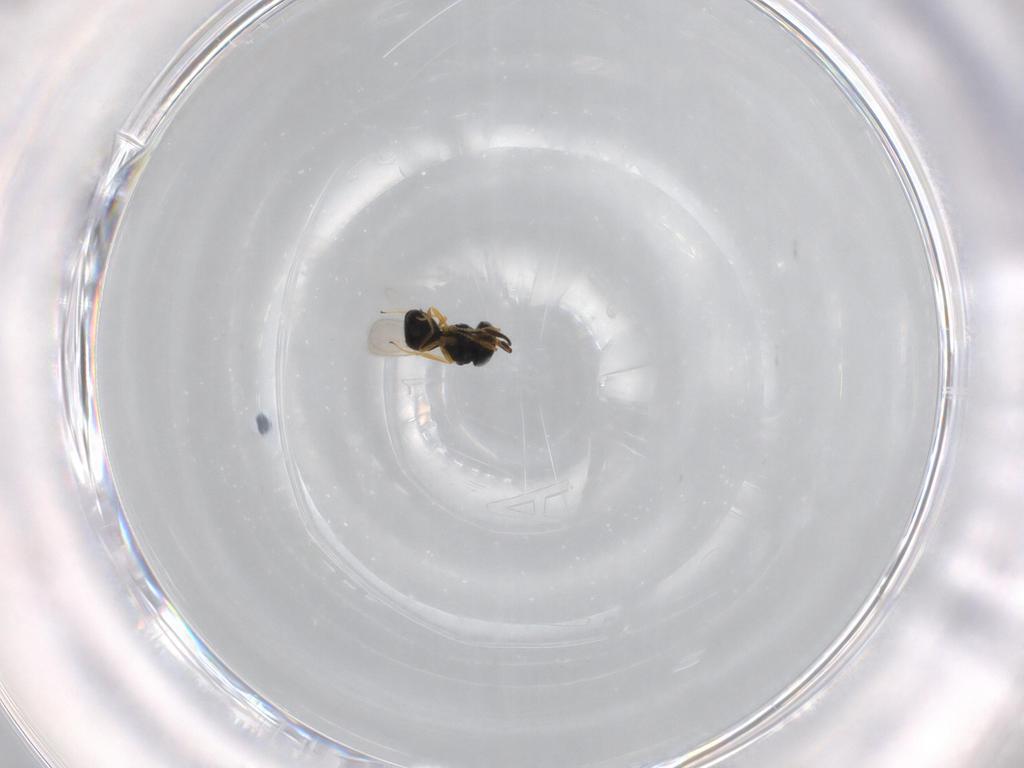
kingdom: Animalia
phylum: Arthropoda
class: Insecta
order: Hymenoptera
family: Scelionidae
